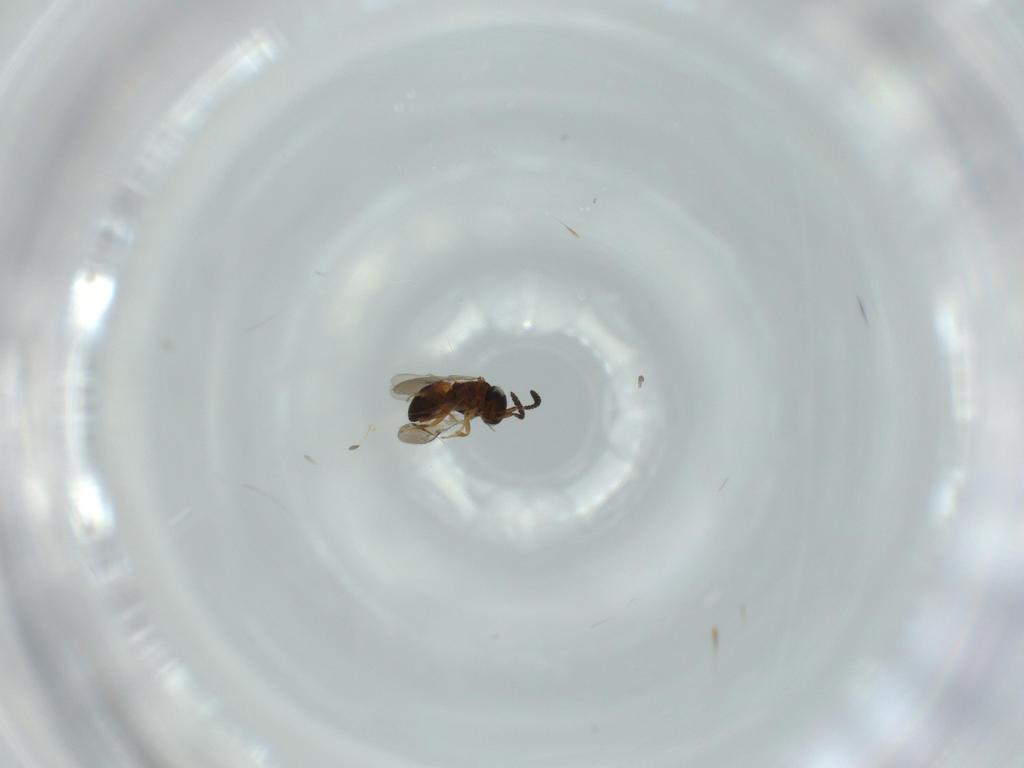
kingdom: Animalia
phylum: Arthropoda
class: Insecta
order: Hymenoptera
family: Scelionidae
